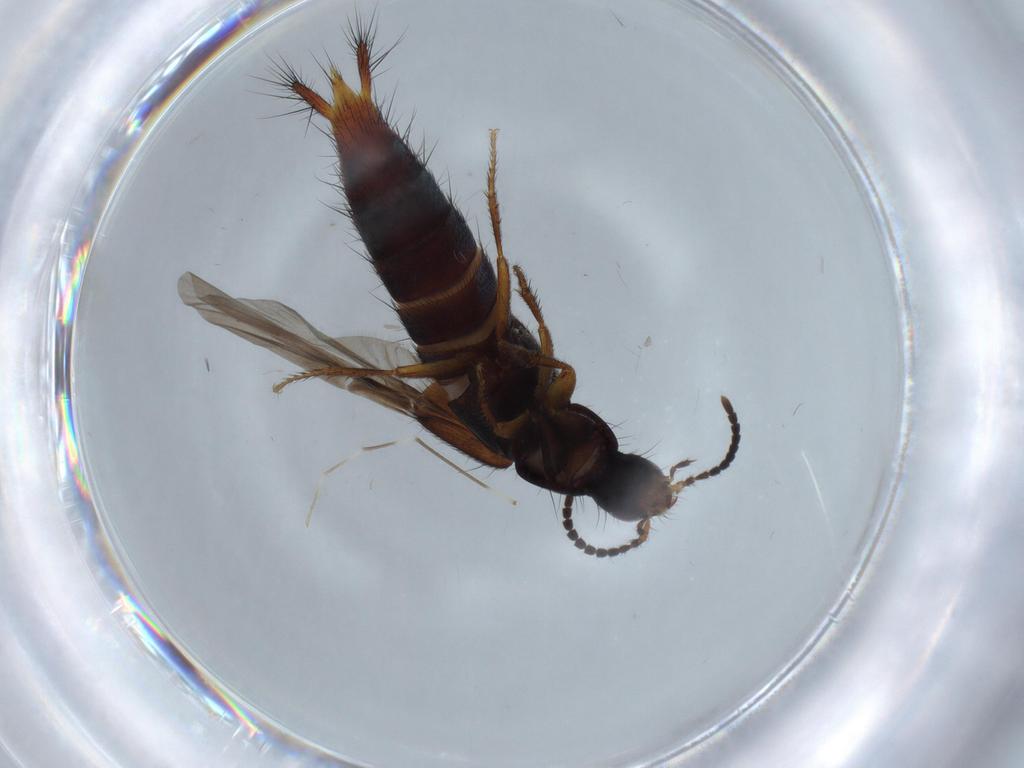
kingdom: Animalia
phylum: Arthropoda
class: Insecta
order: Coleoptera
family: Staphylinidae
